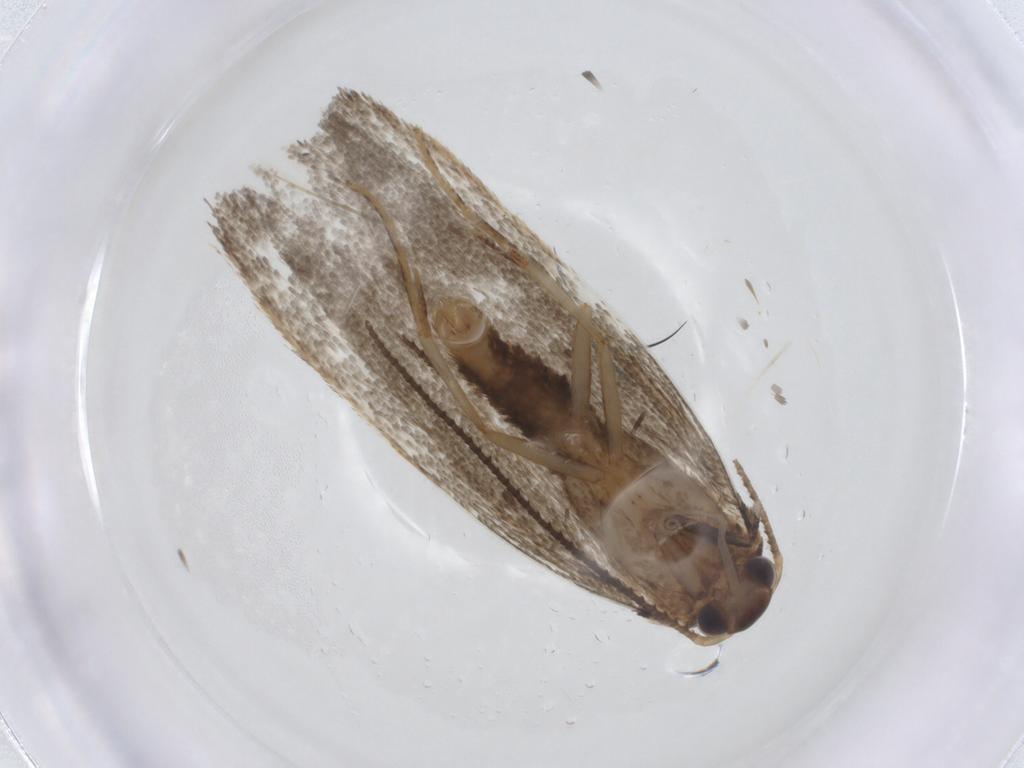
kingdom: Animalia
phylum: Arthropoda
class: Insecta
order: Lepidoptera
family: Erebidae
